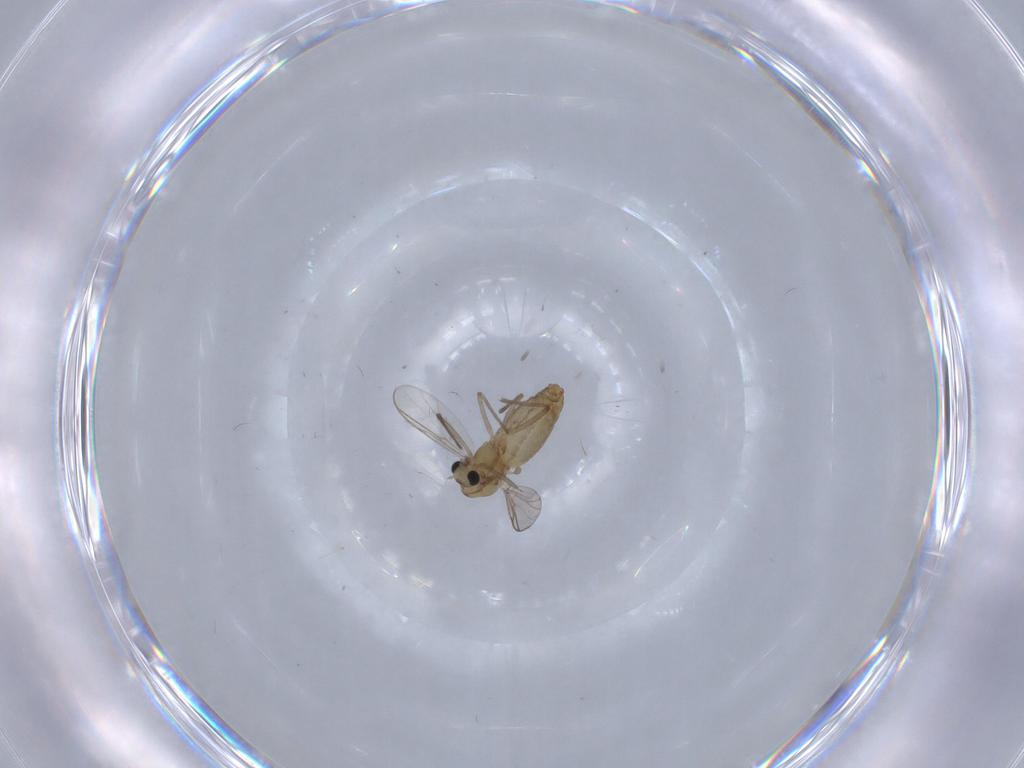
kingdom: Animalia
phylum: Arthropoda
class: Insecta
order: Diptera
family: Chironomidae
